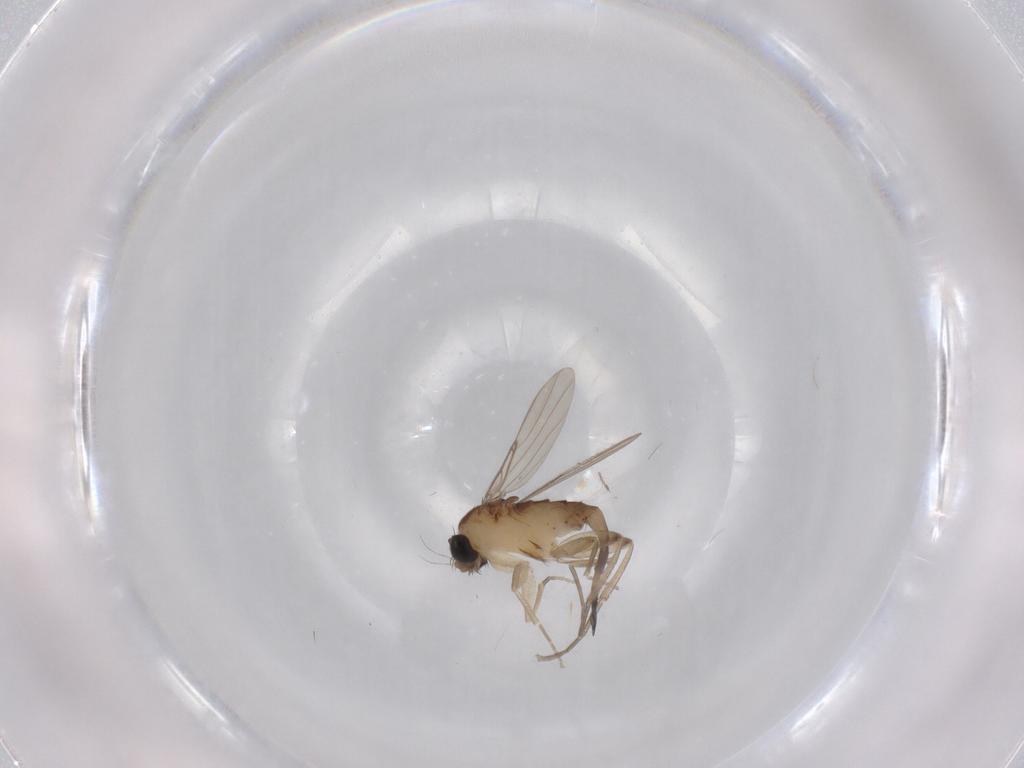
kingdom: Animalia
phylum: Arthropoda
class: Insecta
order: Diptera
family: Phoridae
